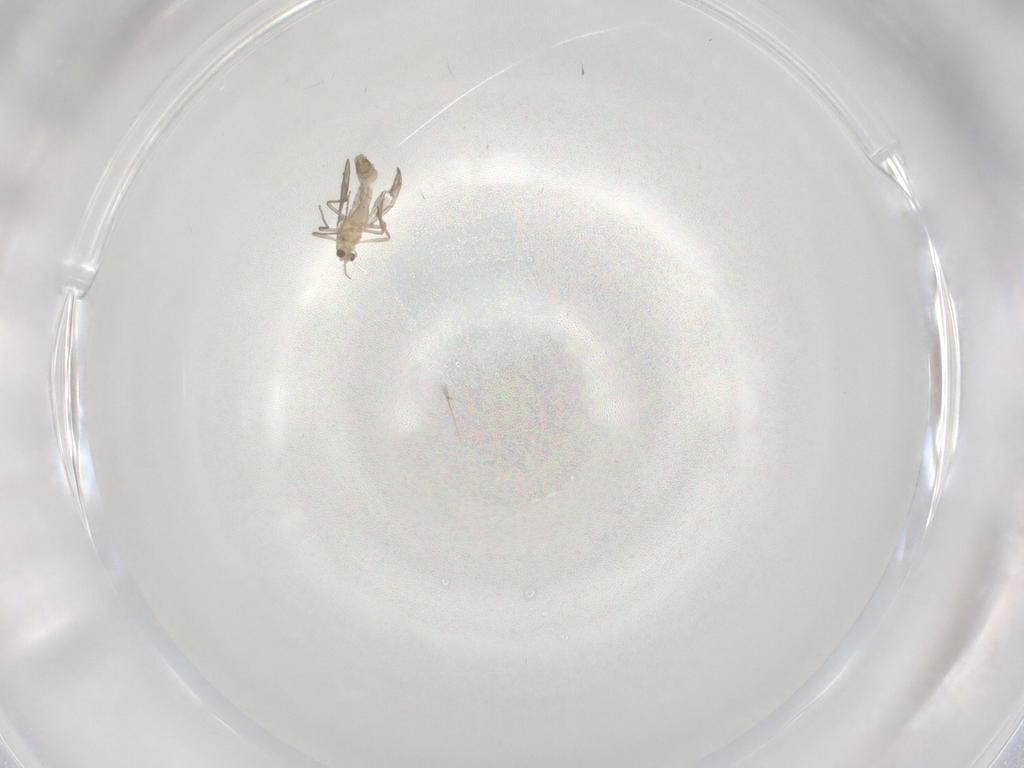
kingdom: Animalia
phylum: Arthropoda
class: Insecta
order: Diptera
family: Chironomidae
